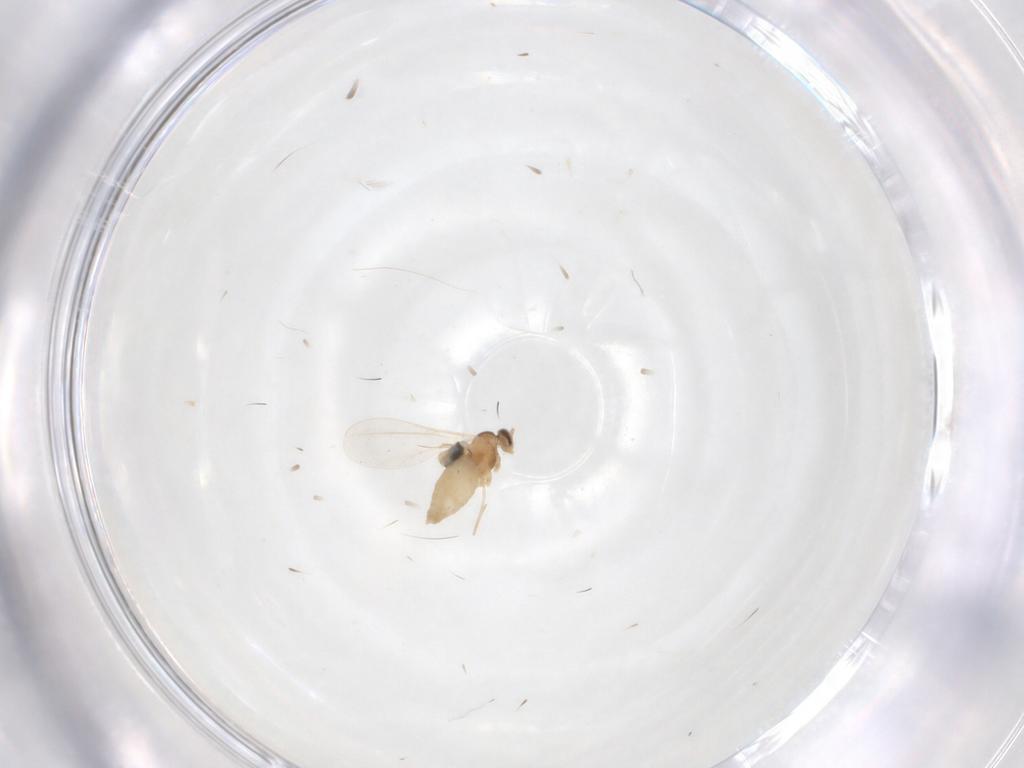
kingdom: Animalia
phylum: Arthropoda
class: Insecta
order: Diptera
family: Cecidomyiidae
